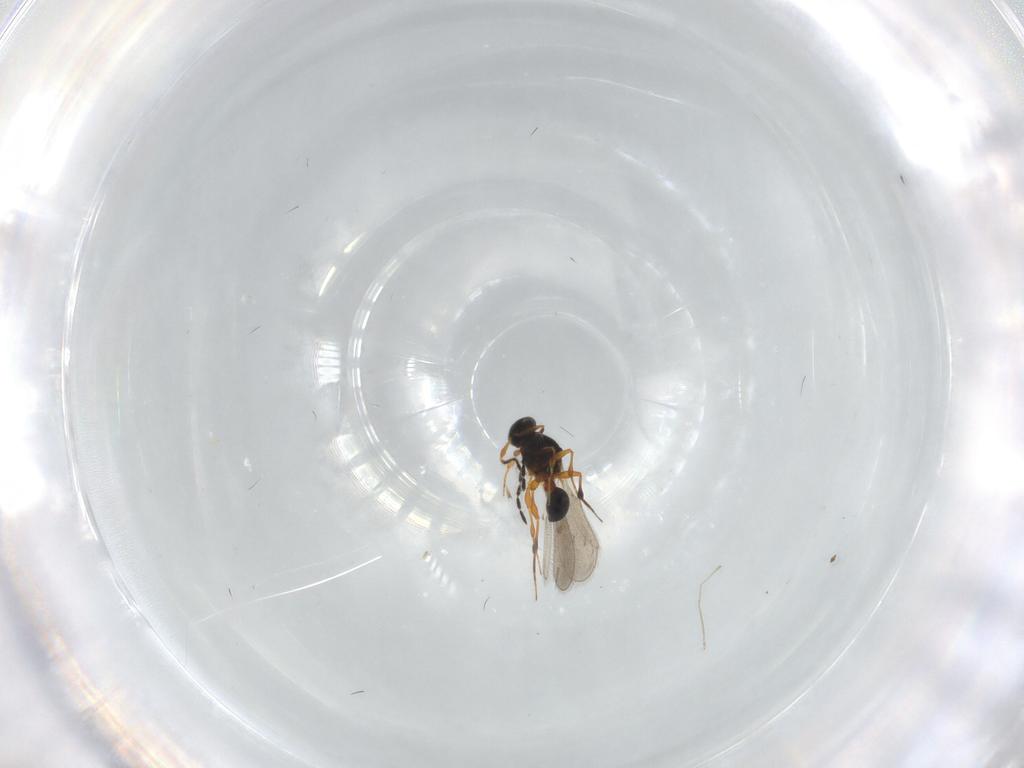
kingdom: Animalia
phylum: Arthropoda
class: Insecta
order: Hymenoptera
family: Platygastridae
